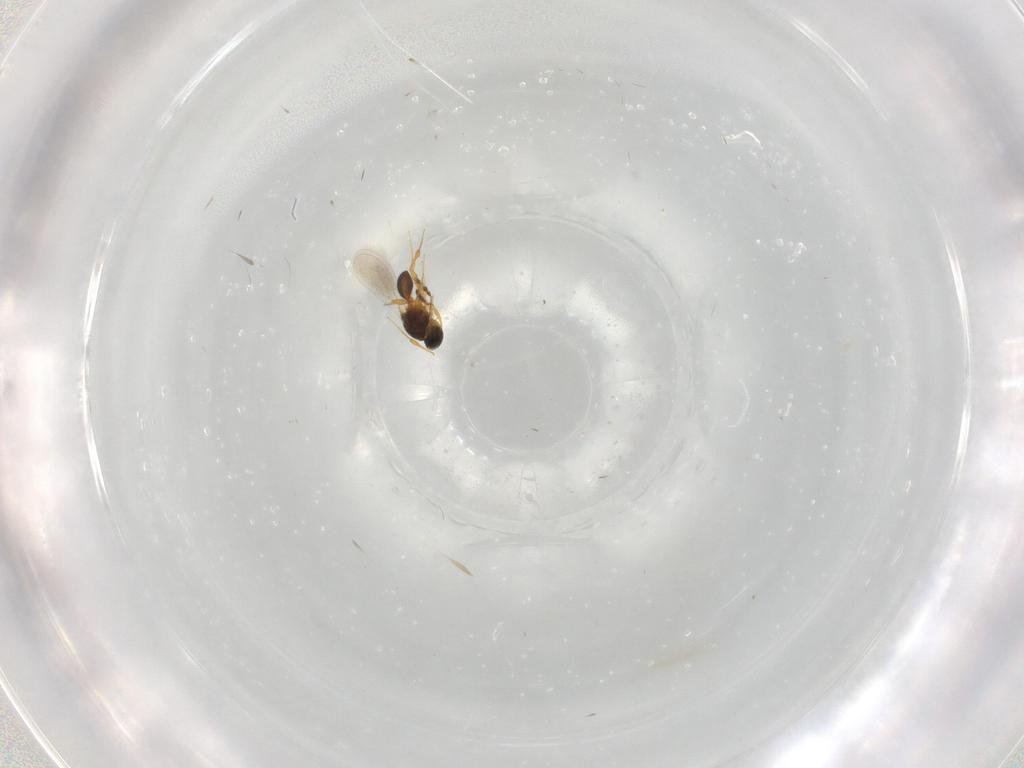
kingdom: Animalia
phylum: Arthropoda
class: Insecta
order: Hymenoptera
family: Platygastridae
